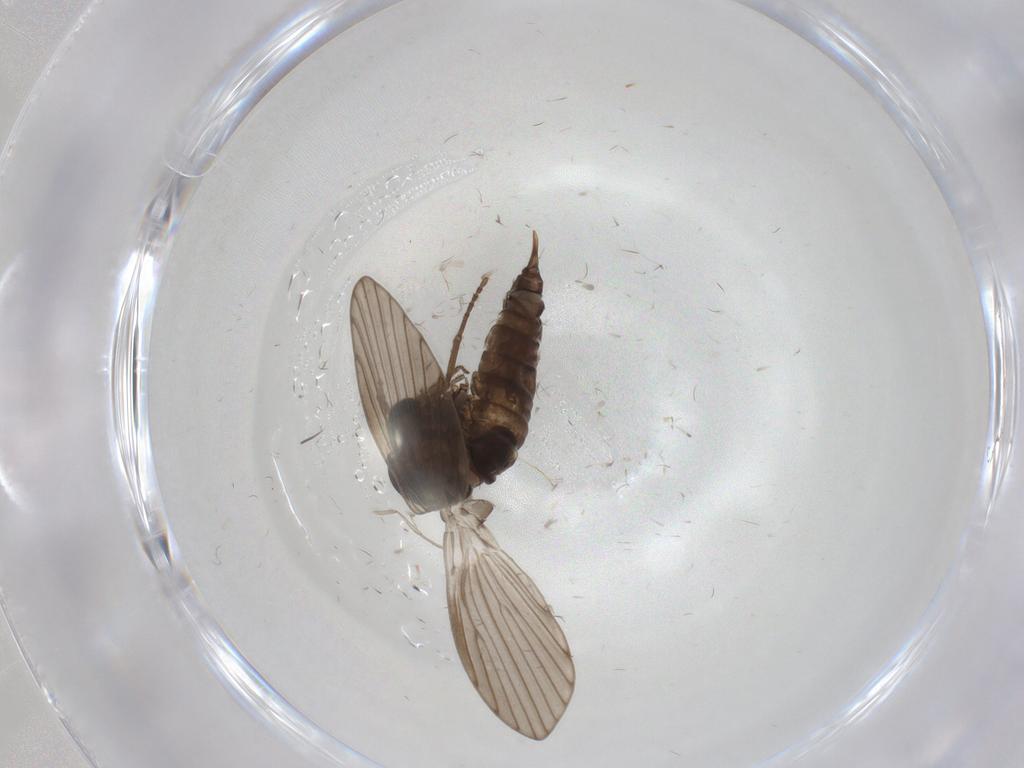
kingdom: Animalia
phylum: Arthropoda
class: Insecta
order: Diptera
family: Psychodidae
